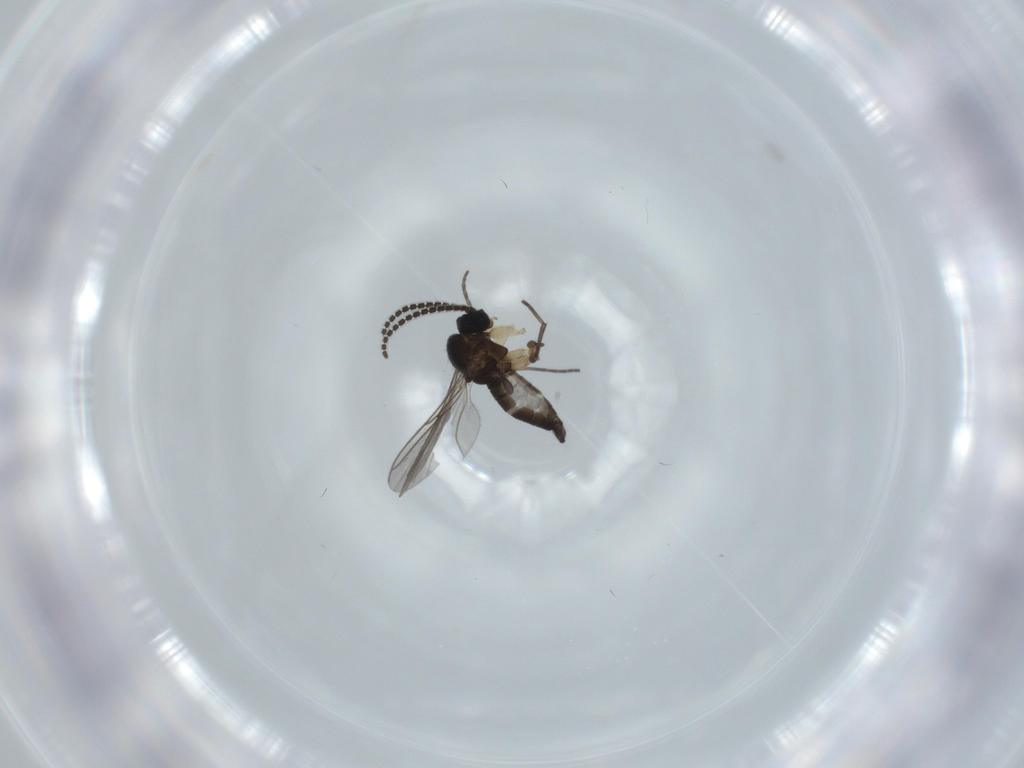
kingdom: Animalia
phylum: Arthropoda
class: Insecta
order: Diptera
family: Sciaridae
